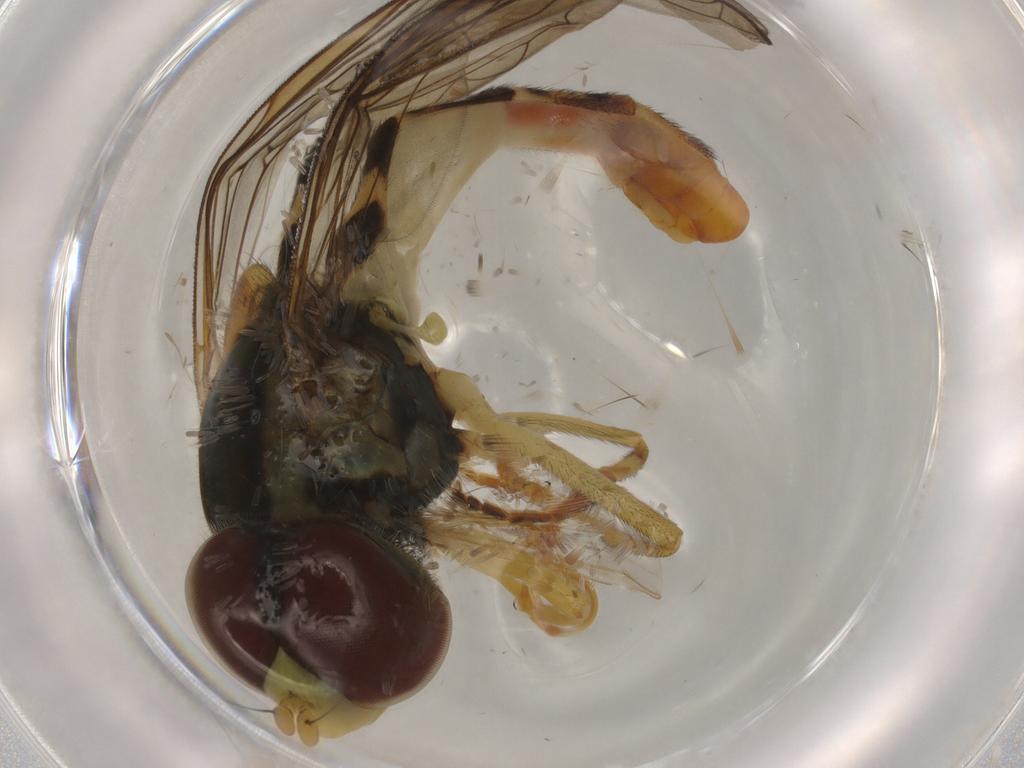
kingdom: Animalia
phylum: Arthropoda
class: Insecta
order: Diptera
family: Syrphidae
